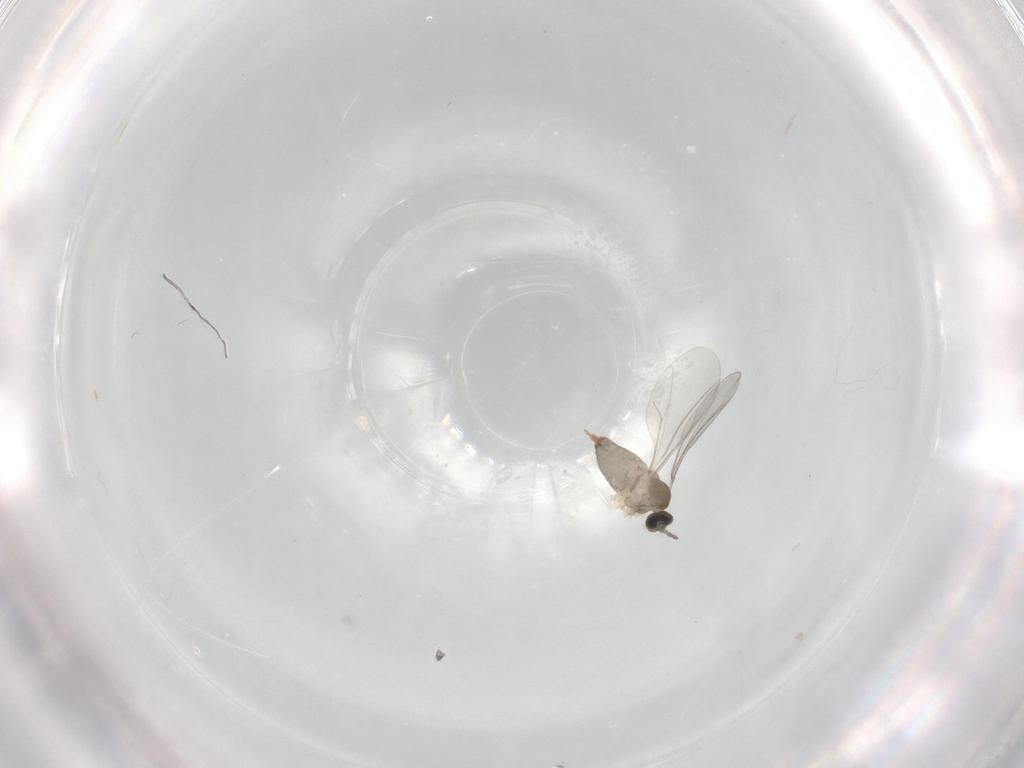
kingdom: Animalia
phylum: Arthropoda
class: Insecta
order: Diptera
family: Cecidomyiidae
